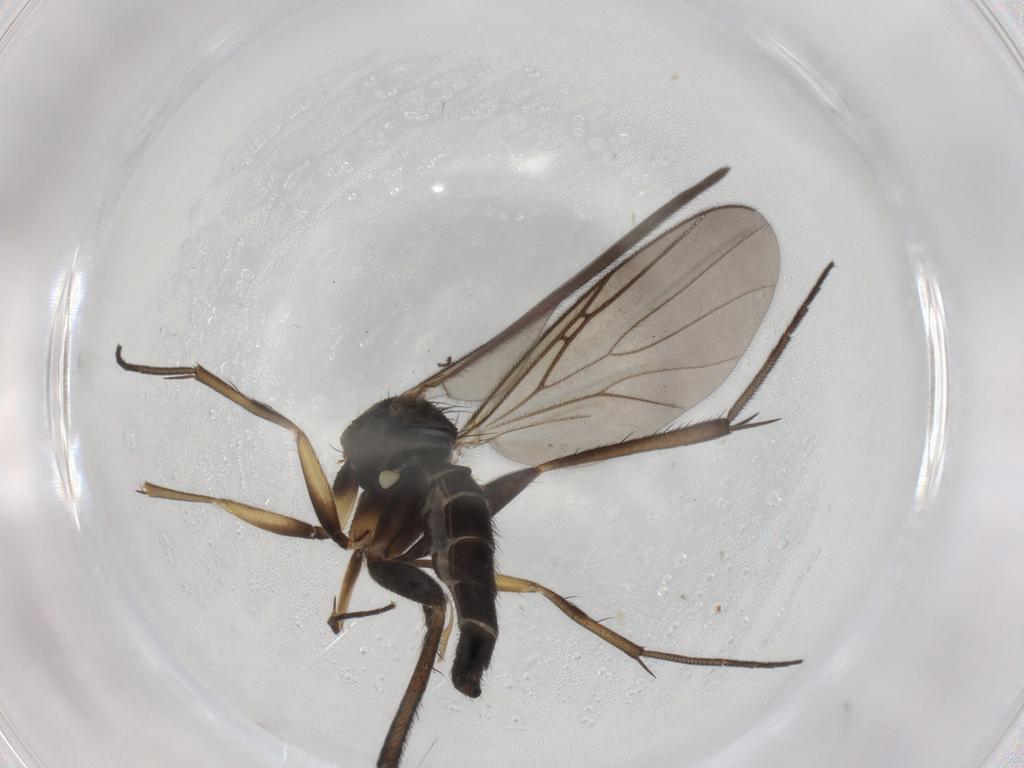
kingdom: Animalia
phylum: Arthropoda
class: Insecta
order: Diptera
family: Mycetophilidae
